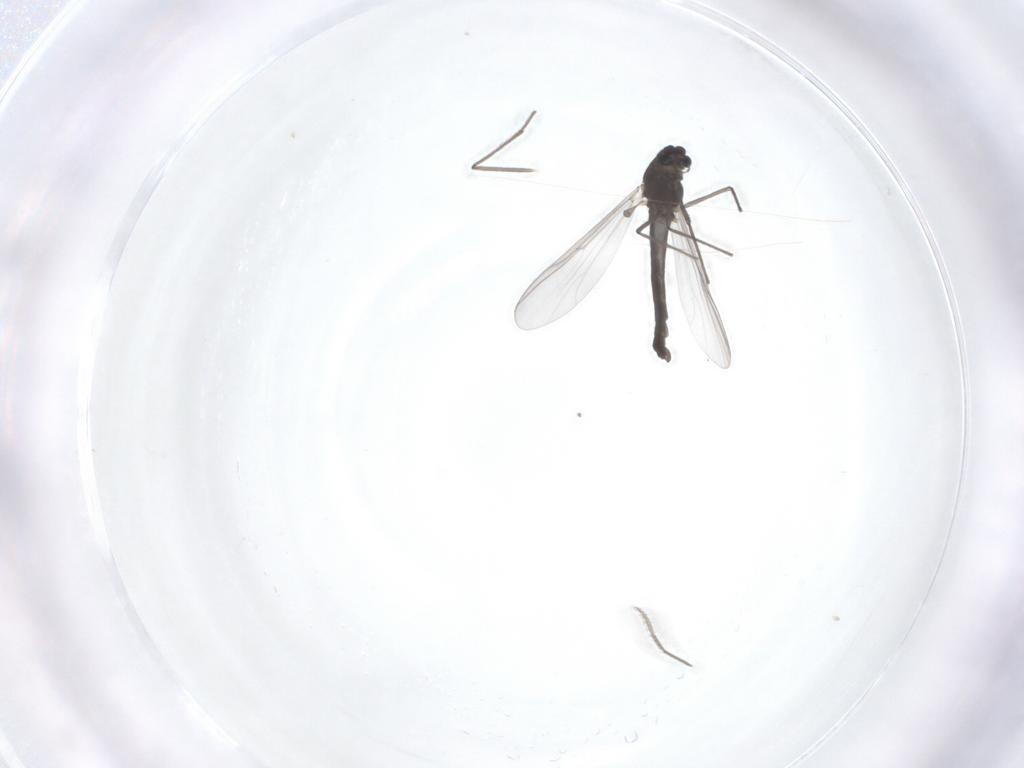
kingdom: Animalia
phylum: Arthropoda
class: Insecta
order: Diptera
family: Chironomidae
